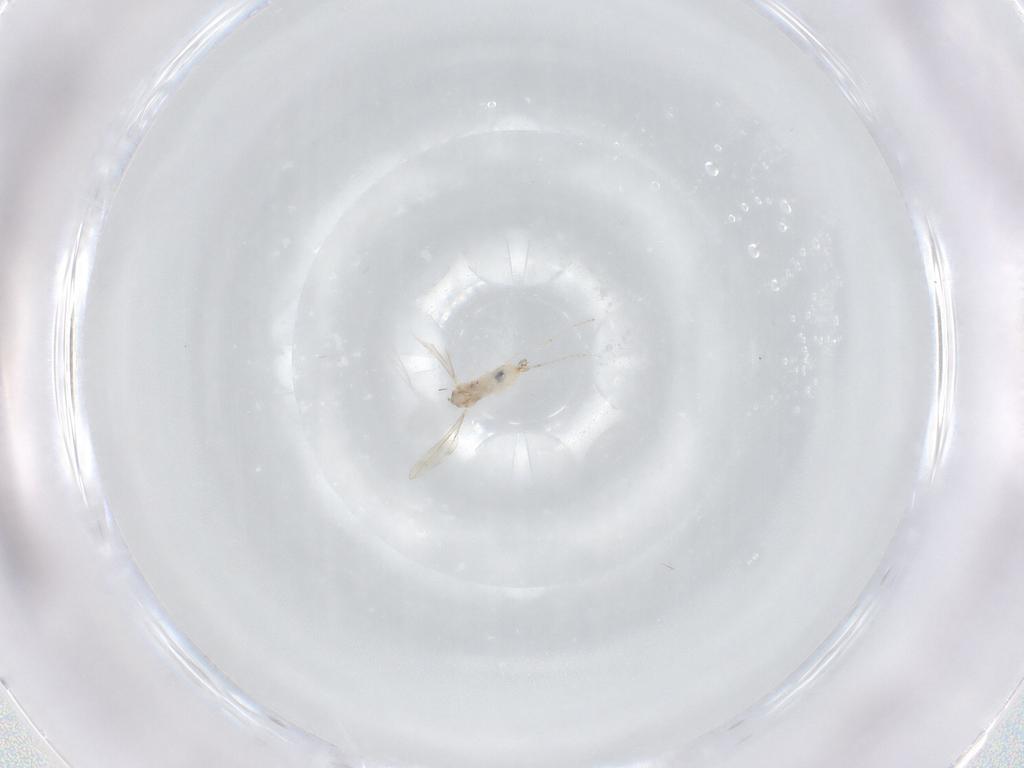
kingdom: Animalia
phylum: Arthropoda
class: Insecta
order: Diptera
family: Cecidomyiidae
